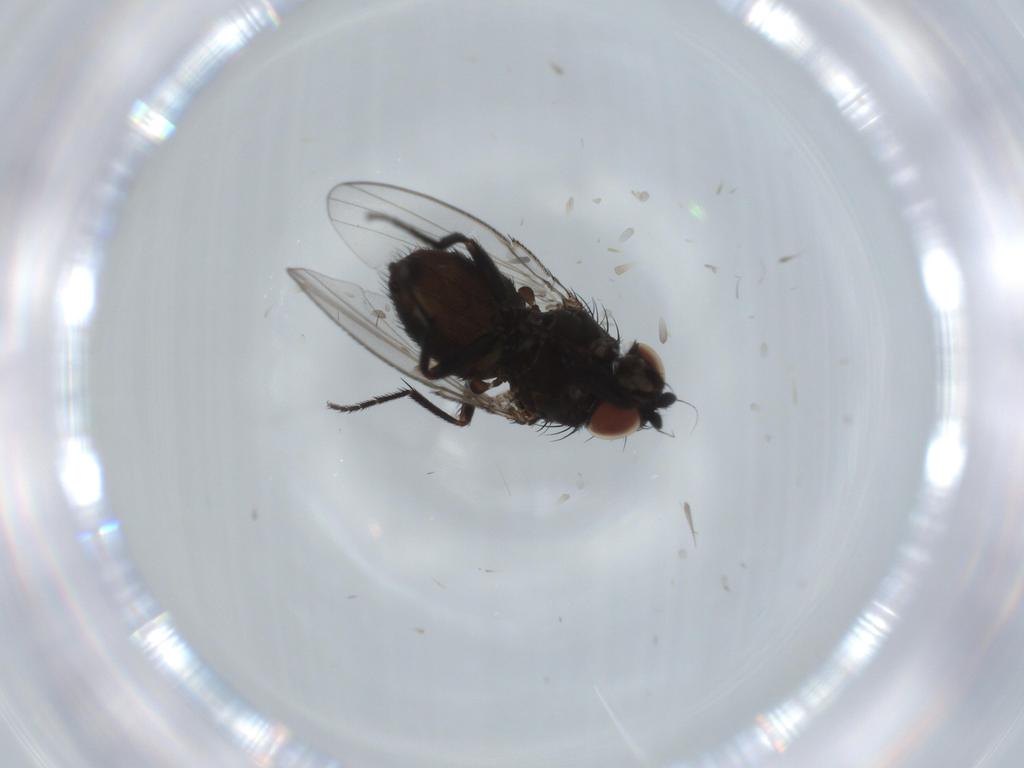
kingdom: Animalia
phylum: Arthropoda
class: Insecta
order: Diptera
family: Milichiidae
